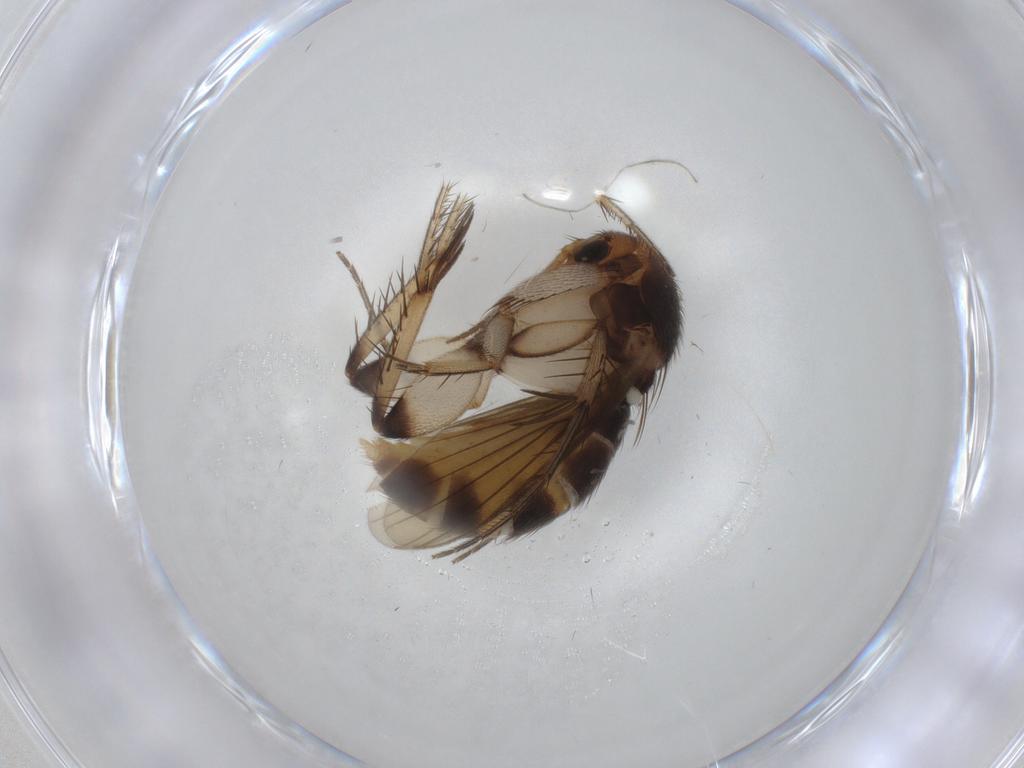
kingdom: Animalia
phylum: Arthropoda
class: Insecta
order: Diptera
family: Mycetophilidae
